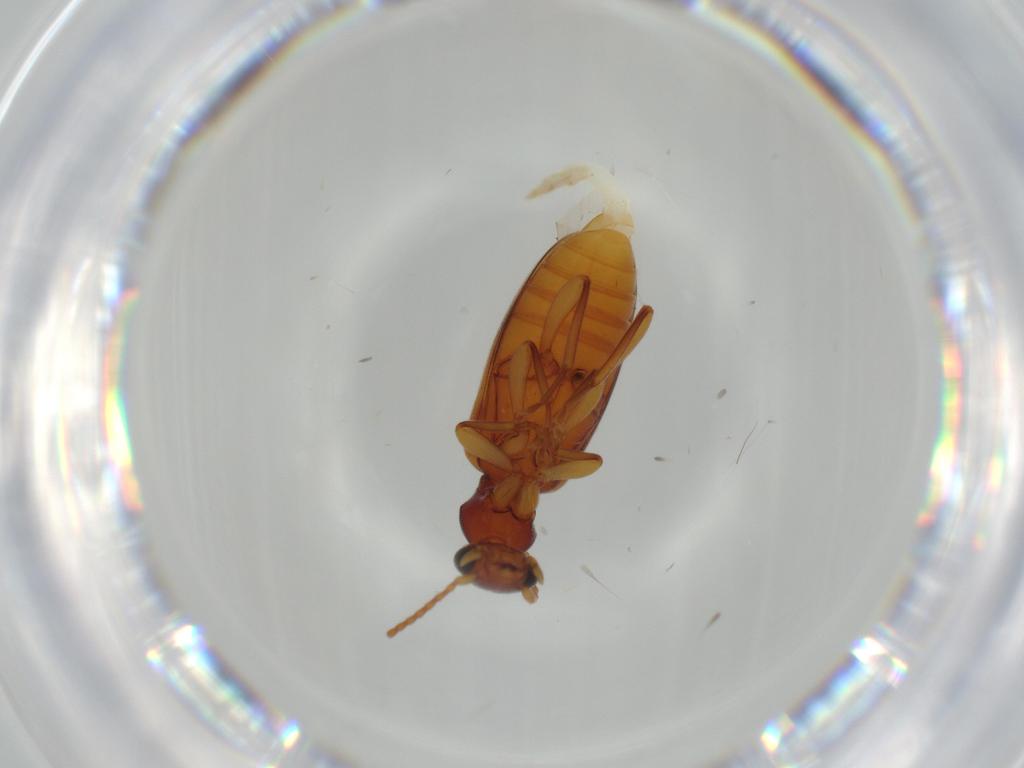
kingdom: Animalia
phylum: Arthropoda
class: Insecta
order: Coleoptera
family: Anthicidae
